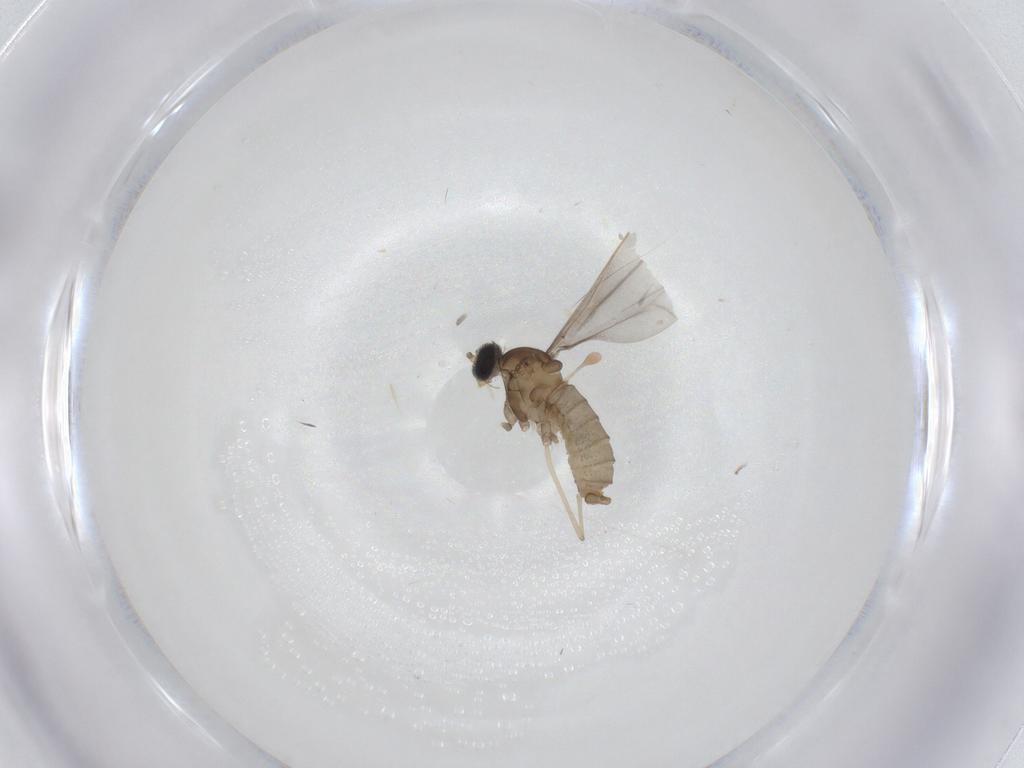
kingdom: Animalia
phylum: Arthropoda
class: Insecta
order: Diptera
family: Cecidomyiidae
